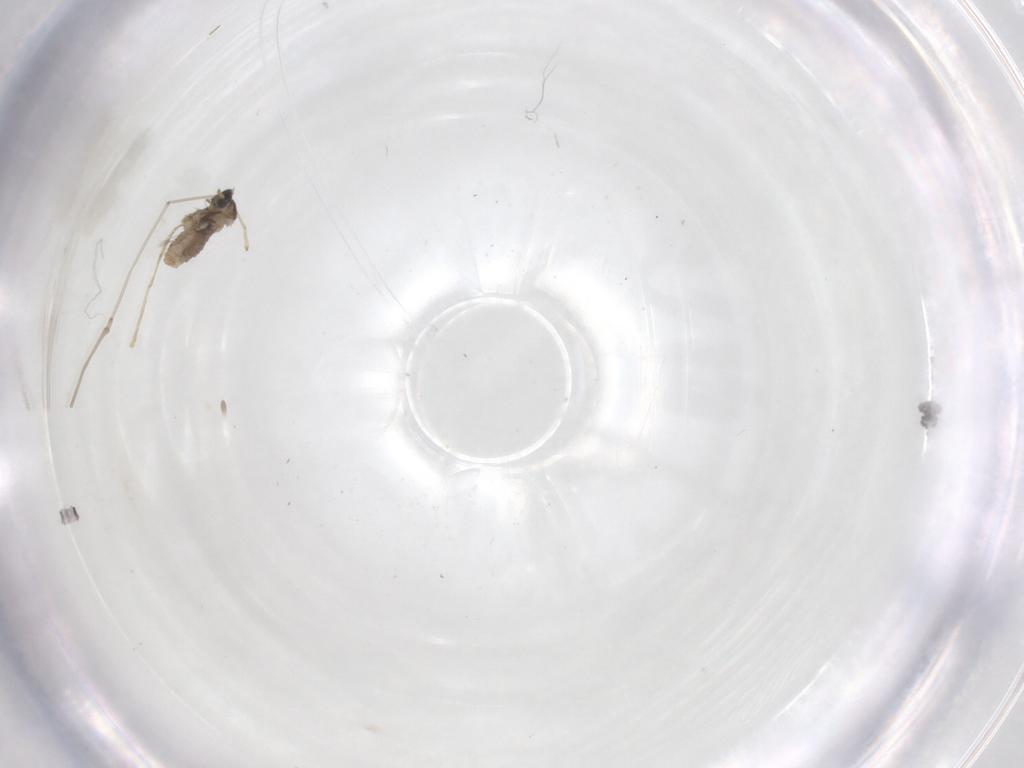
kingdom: Animalia
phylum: Arthropoda
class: Insecta
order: Diptera
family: Cecidomyiidae
